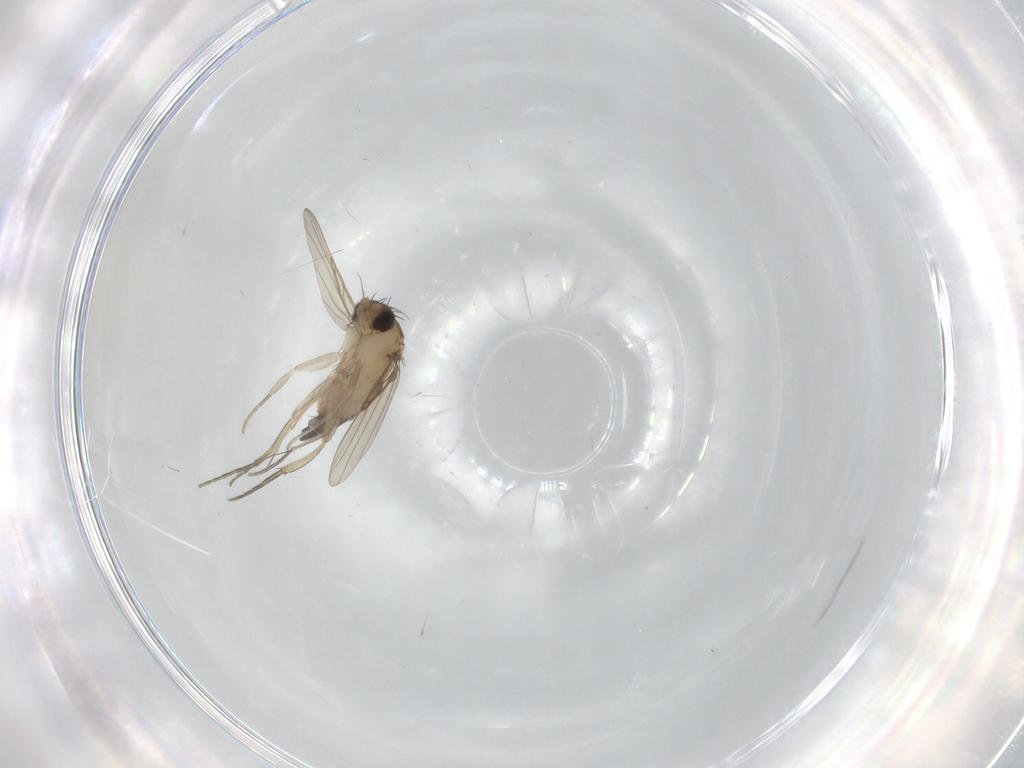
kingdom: Animalia
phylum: Arthropoda
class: Insecta
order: Diptera
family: Phoridae
